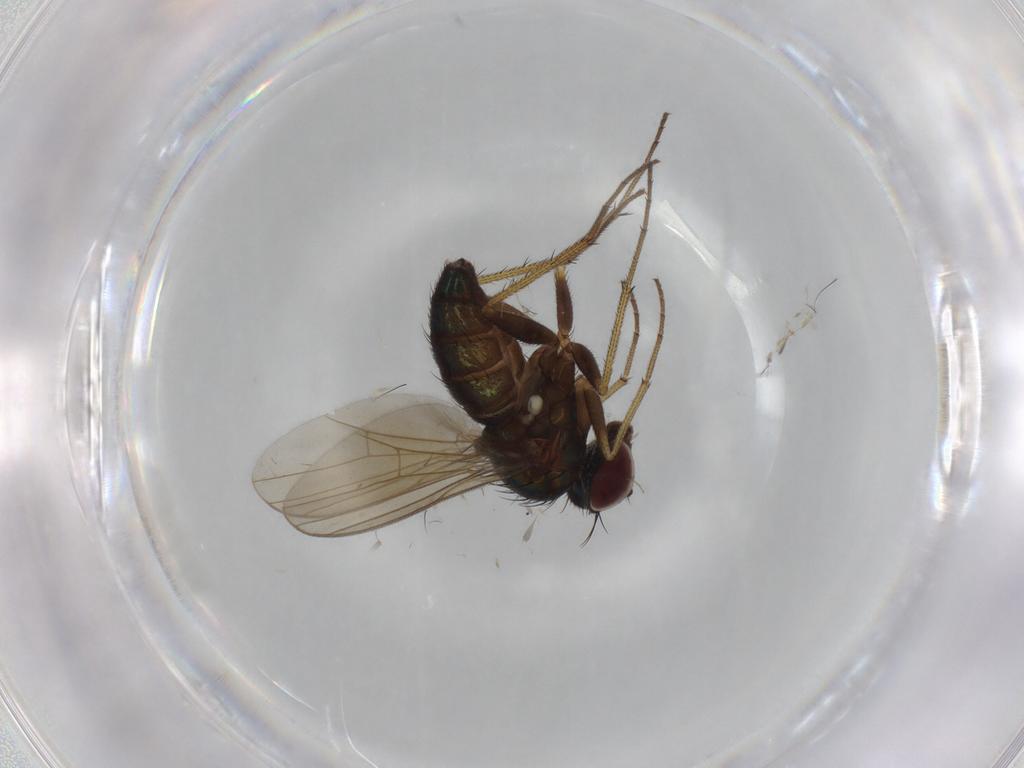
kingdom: Animalia
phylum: Arthropoda
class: Insecta
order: Diptera
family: Dolichopodidae
